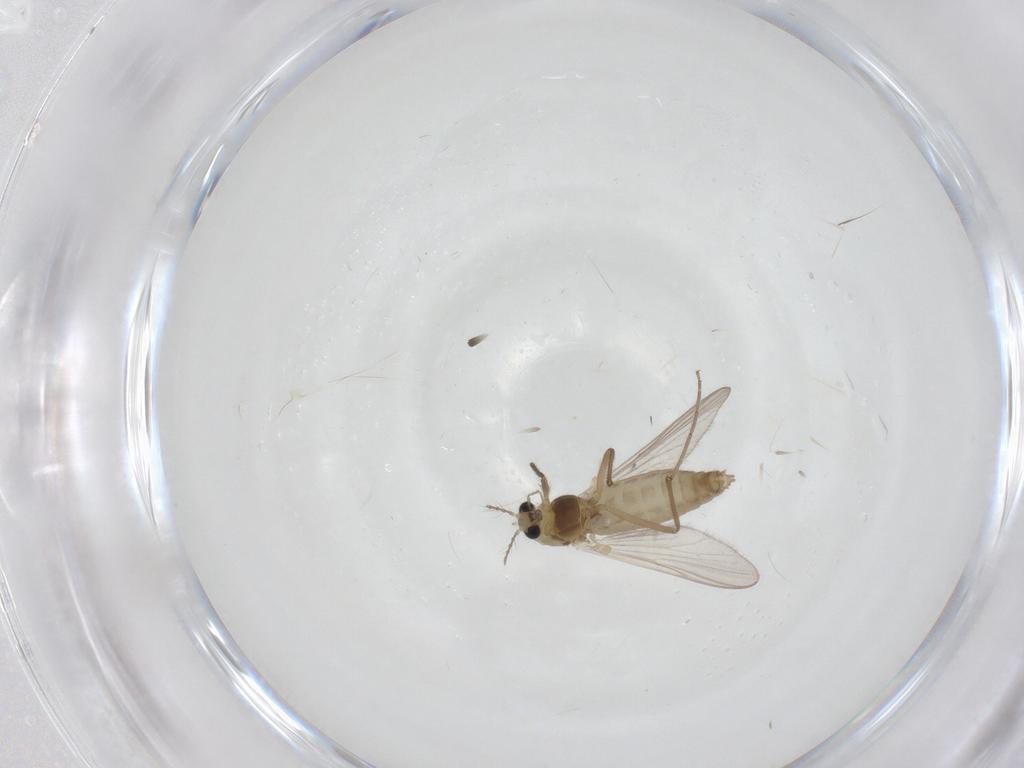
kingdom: Animalia
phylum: Arthropoda
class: Insecta
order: Diptera
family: Chironomidae
